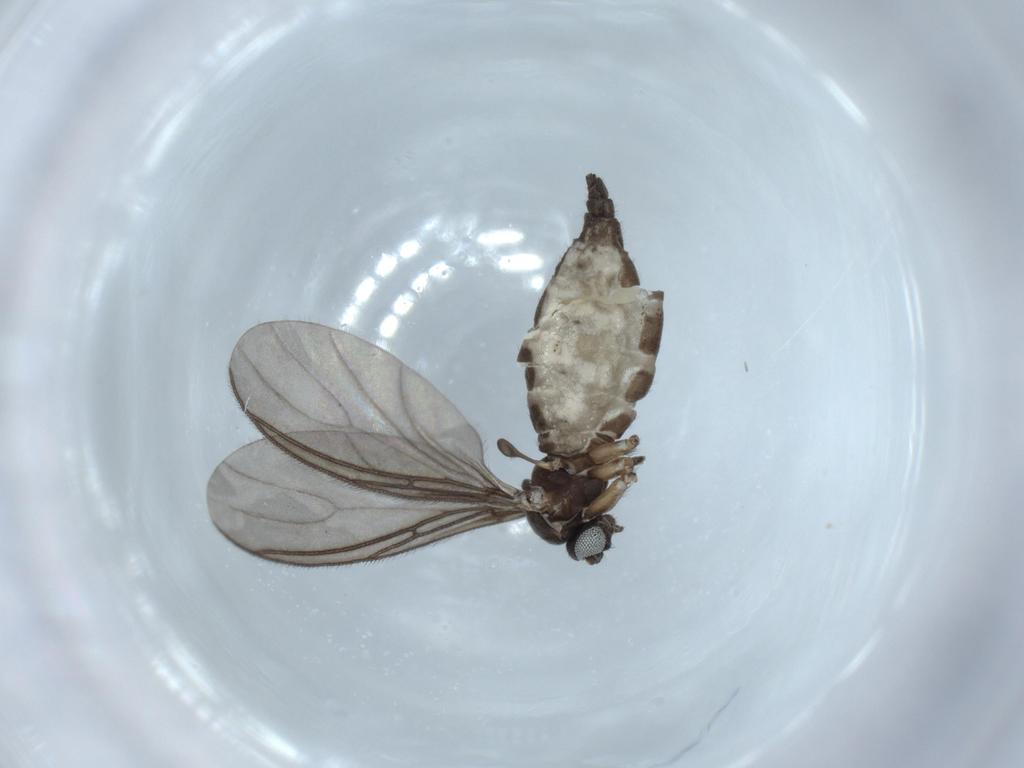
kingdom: Animalia
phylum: Arthropoda
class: Insecta
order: Diptera
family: Sciaridae
